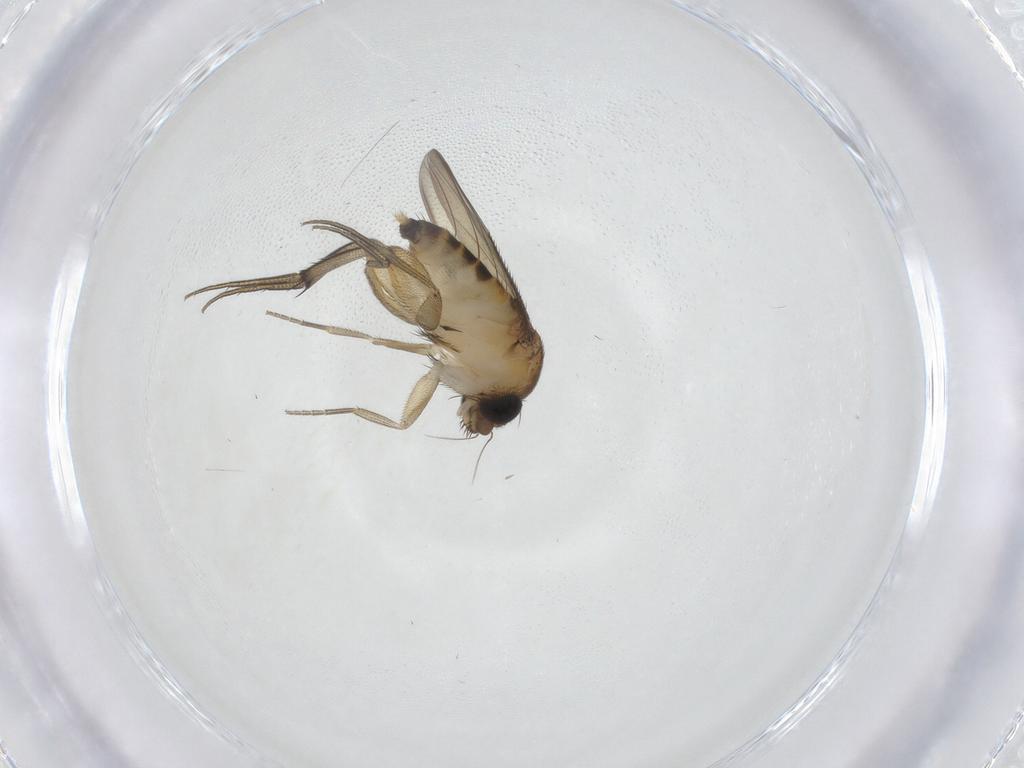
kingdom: Animalia
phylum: Arthropoda
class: Insecta
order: Diptera
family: Phoridae
